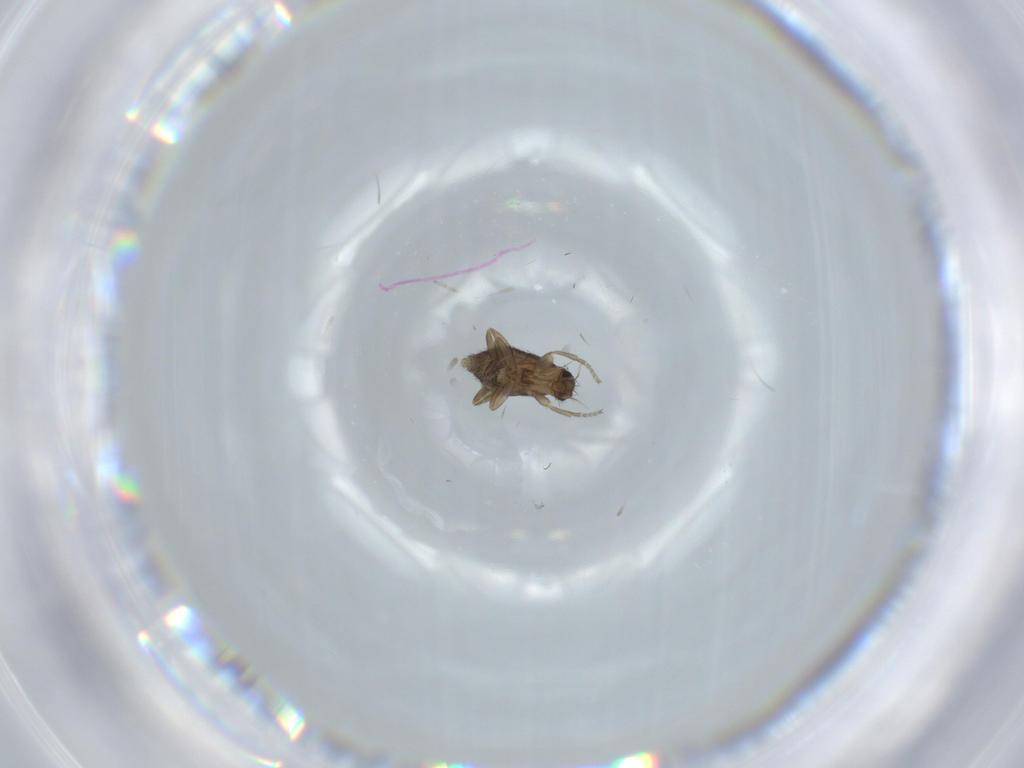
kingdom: Animalia
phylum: Arthropoda
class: Insecta
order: Diptera
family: Phoridae
